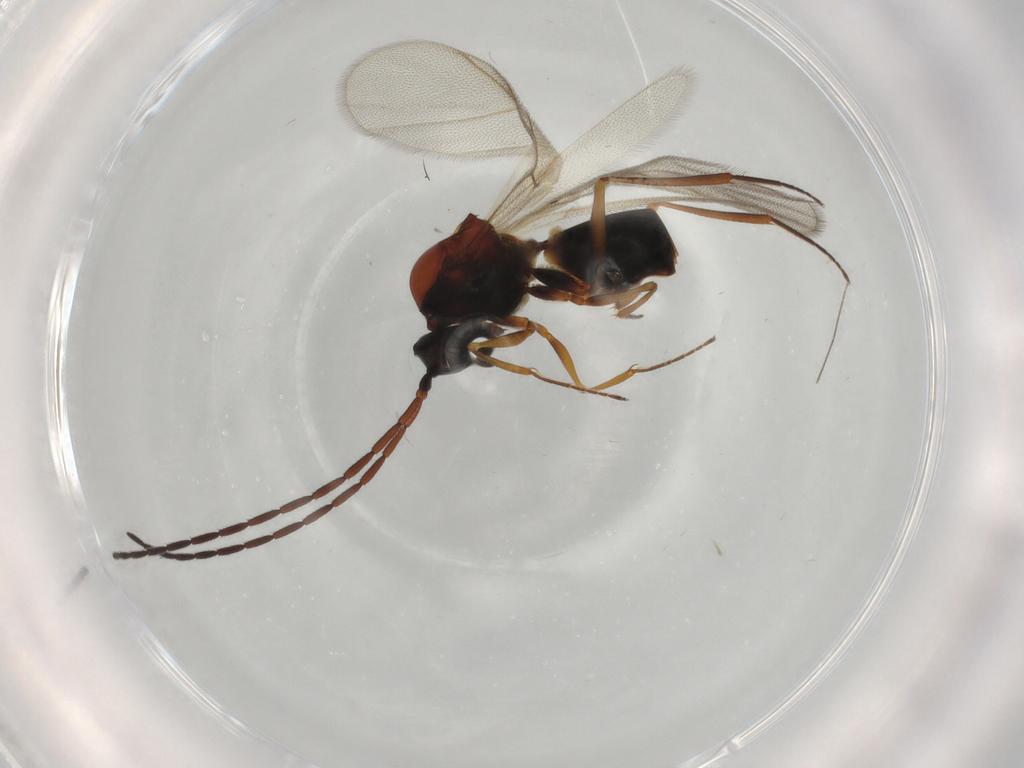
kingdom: Animalia
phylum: Arthropoda
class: Insecta
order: Hymenoptera
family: Figitidae
